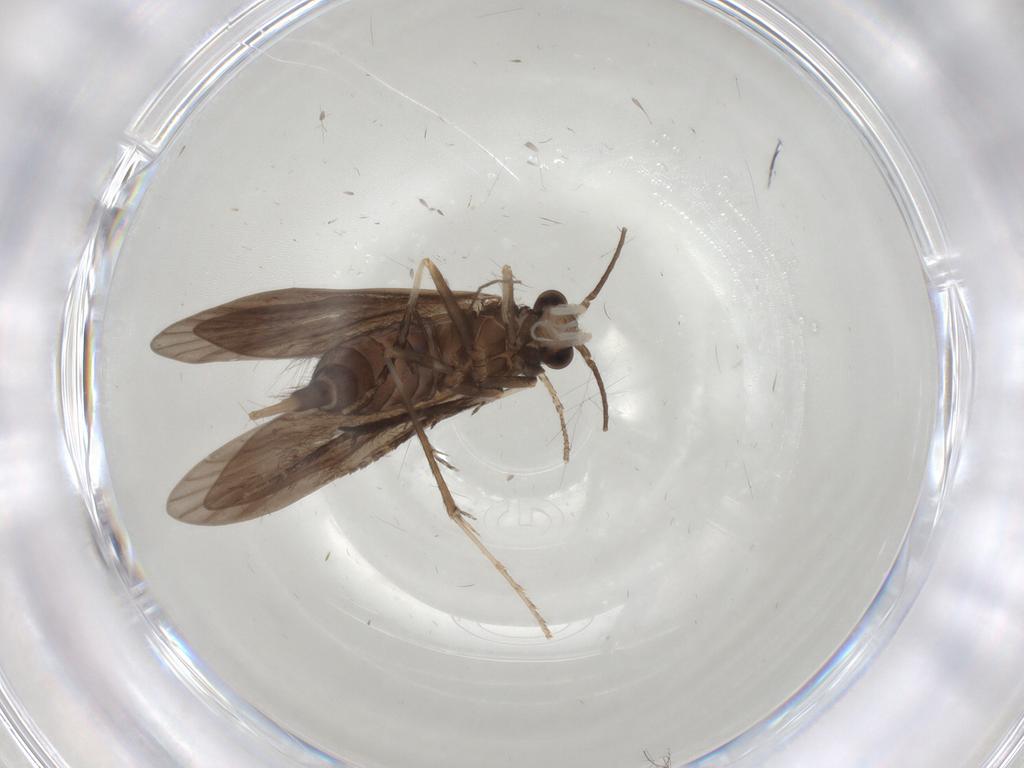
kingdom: Animalia
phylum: Arthropoda
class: Insecta
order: Trichoptera
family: Xiphocentronidae
